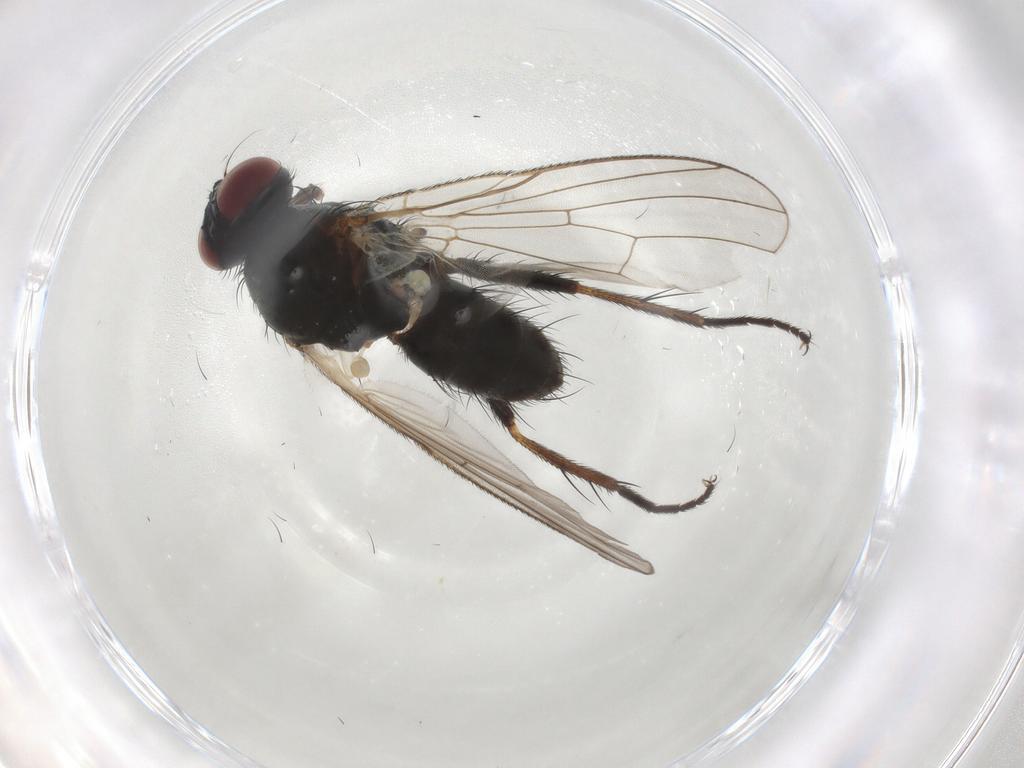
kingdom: Animalia
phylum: Arthropoda
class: Insecta
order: Diptera
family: Muscidae
